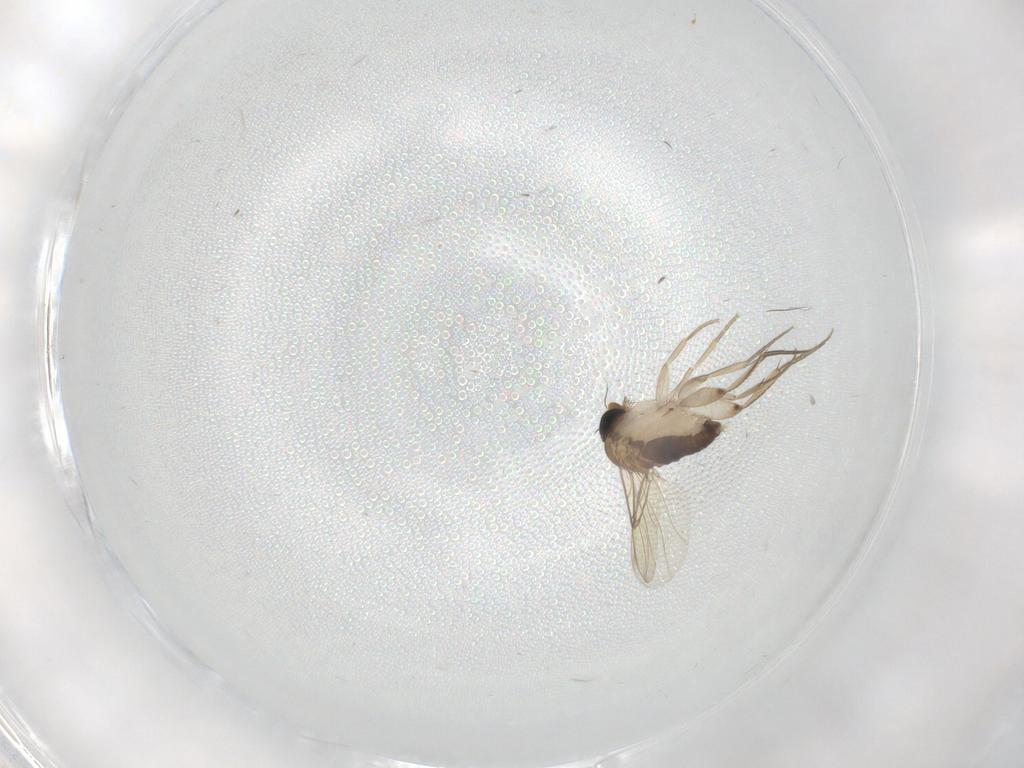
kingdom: Animalia
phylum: Arthropoda
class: Insecta
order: Diptera
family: Phoridae
